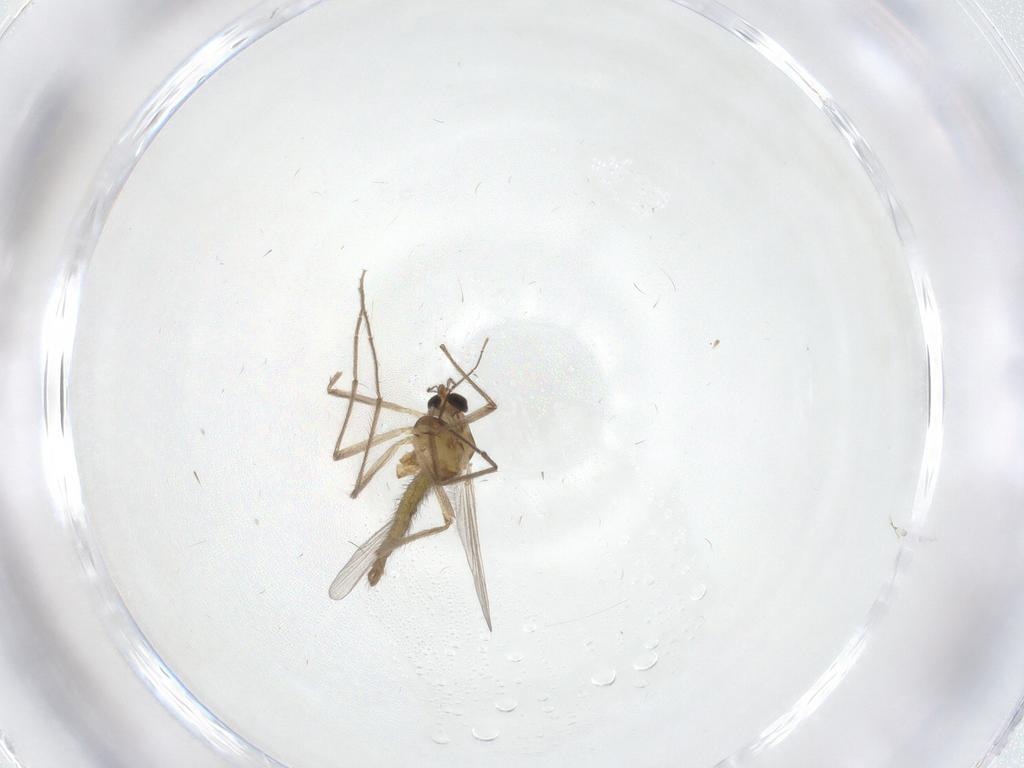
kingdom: Animalia
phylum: Arthropoda
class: Insecta
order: Diptera
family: Chironomidae
